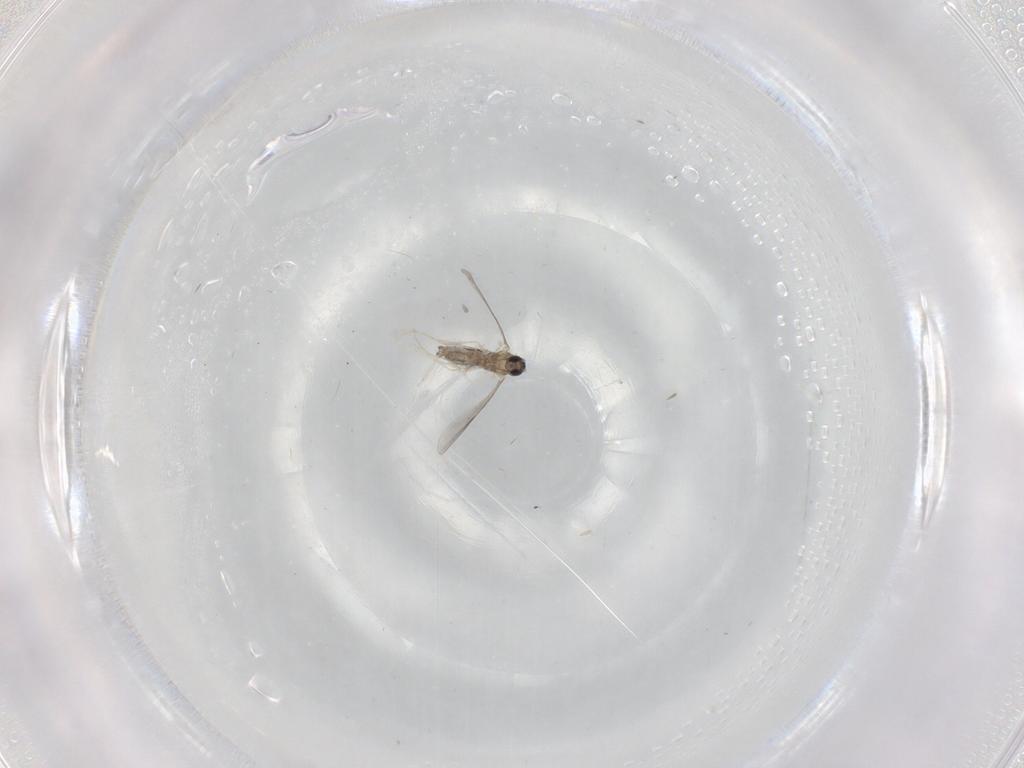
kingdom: Animalia
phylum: Arthropoda
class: Insecta
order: Diptera
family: Cecidomyiidae
